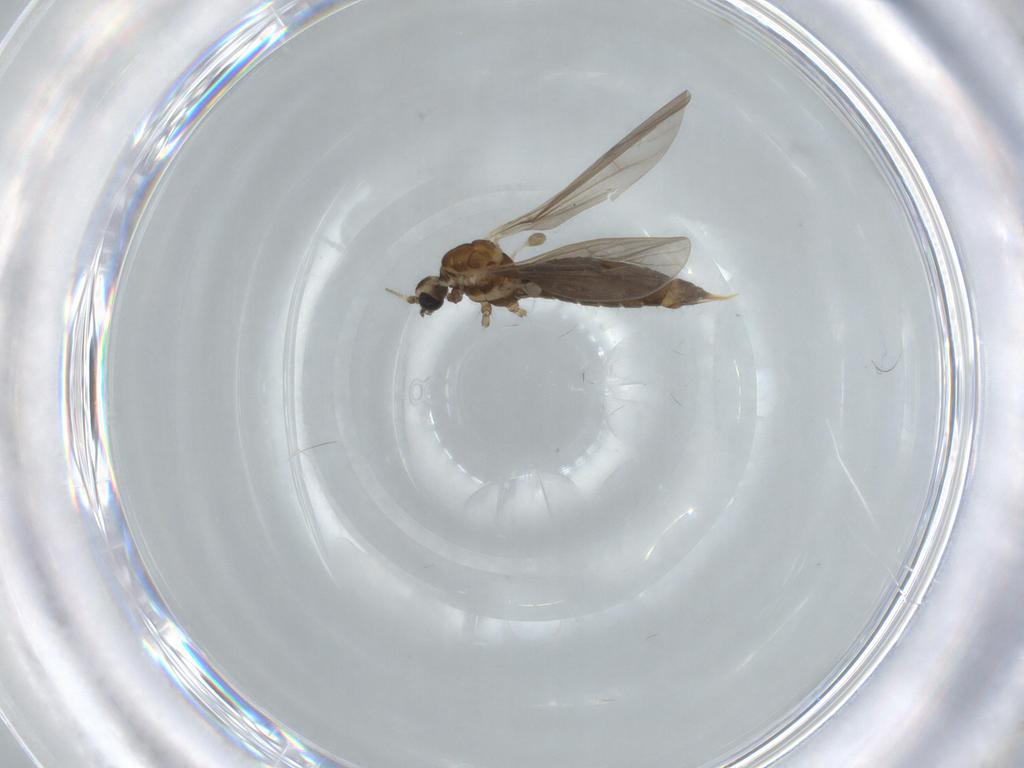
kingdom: Animalia
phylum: Arthropoda
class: Insecta
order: Diptera
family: Limoniidae
